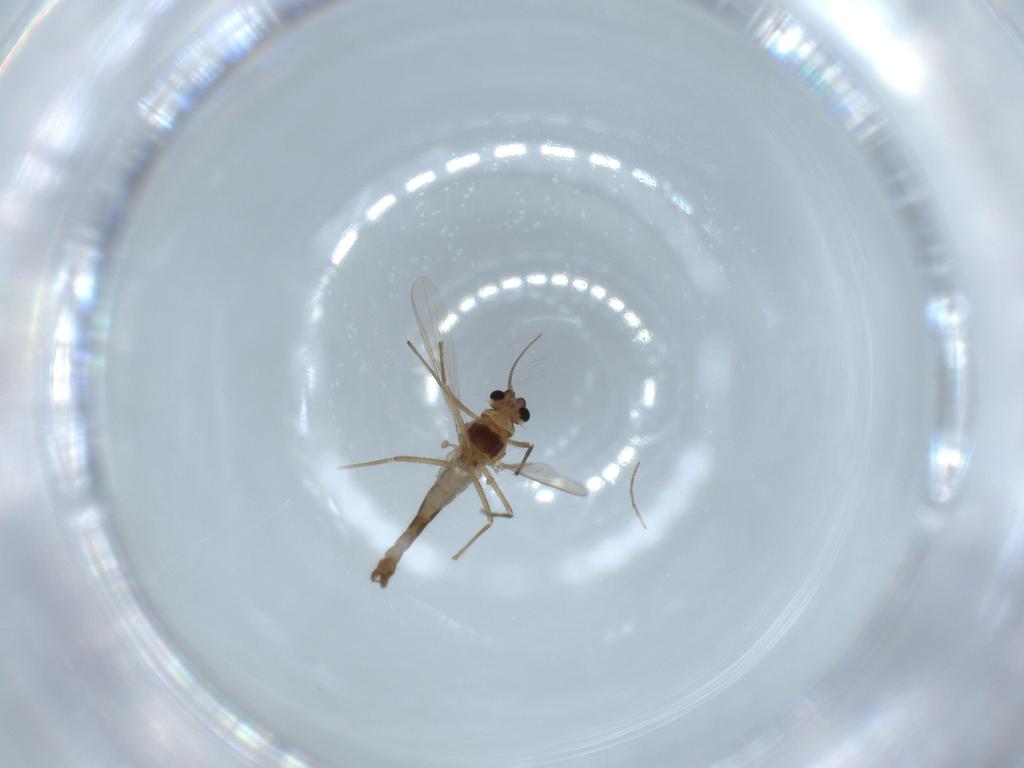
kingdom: Animalia
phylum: Arthropoda
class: Insecta
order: Diptera
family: Chironomidae
